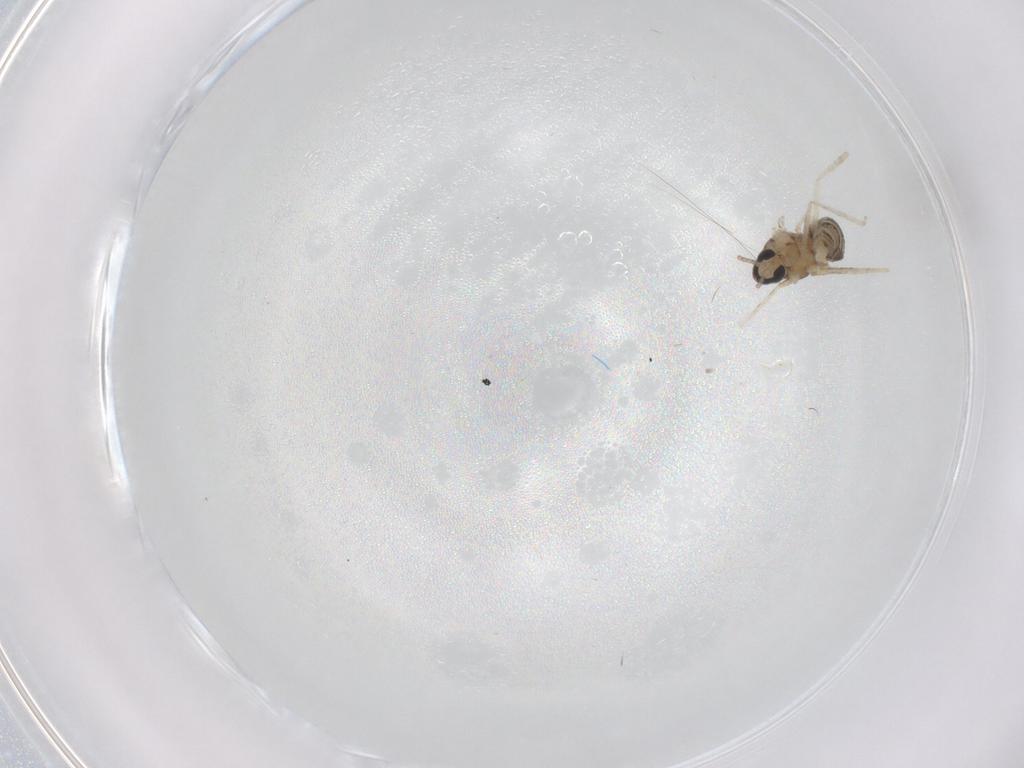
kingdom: Animalia
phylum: Arthropoda
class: Insecta
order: Diptera
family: Cecidomyiidae
